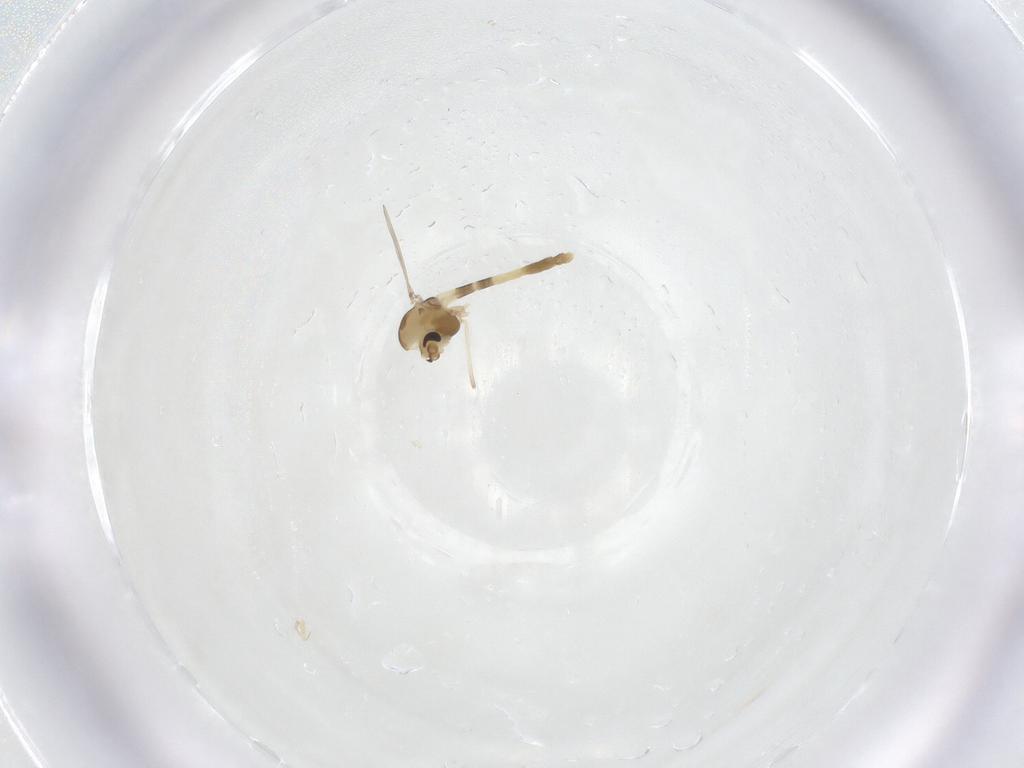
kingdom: Animalia
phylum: Arthropoda
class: Insecta
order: Diptera
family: Chironomidae
